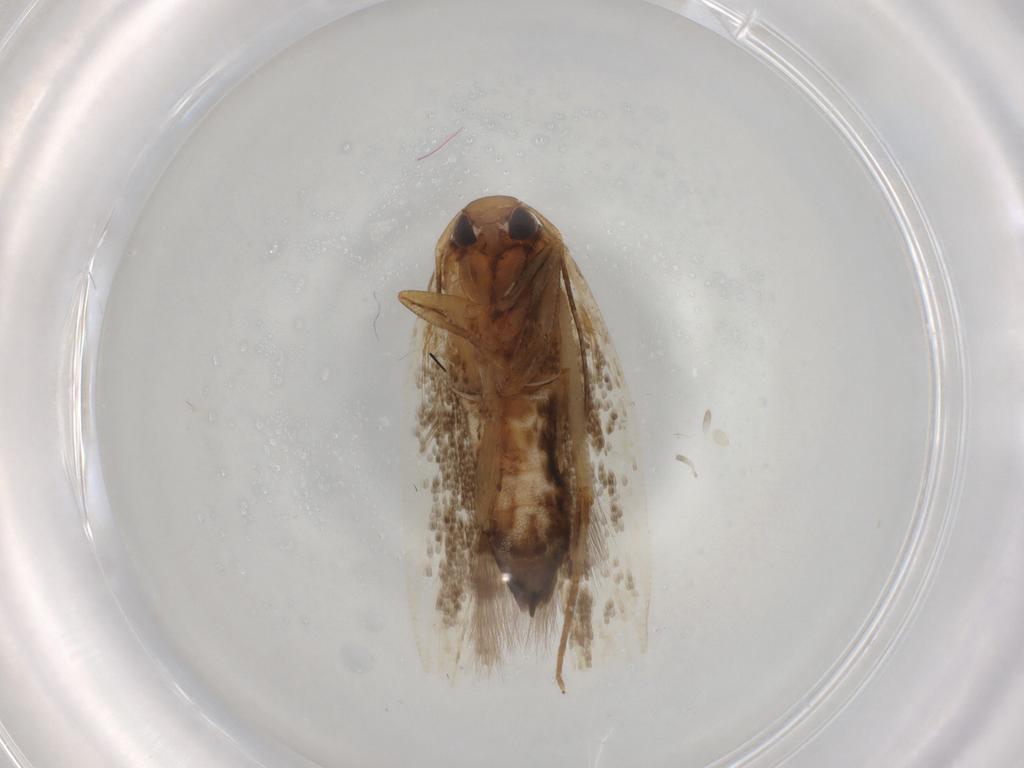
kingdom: Animalia
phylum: Arthropoda
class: Insecta
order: Lepidoptera
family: Cosmopterigidae
